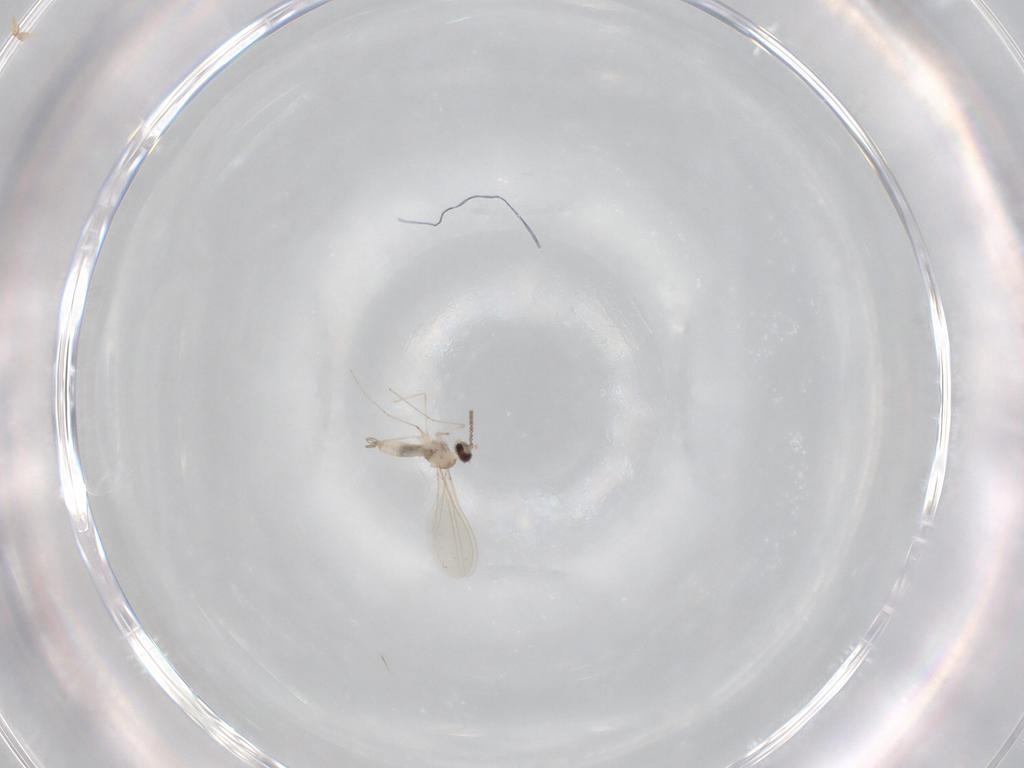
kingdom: Animalia
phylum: Arthropoda
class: Insecta
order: Diptera
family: Cecidomyiidae
